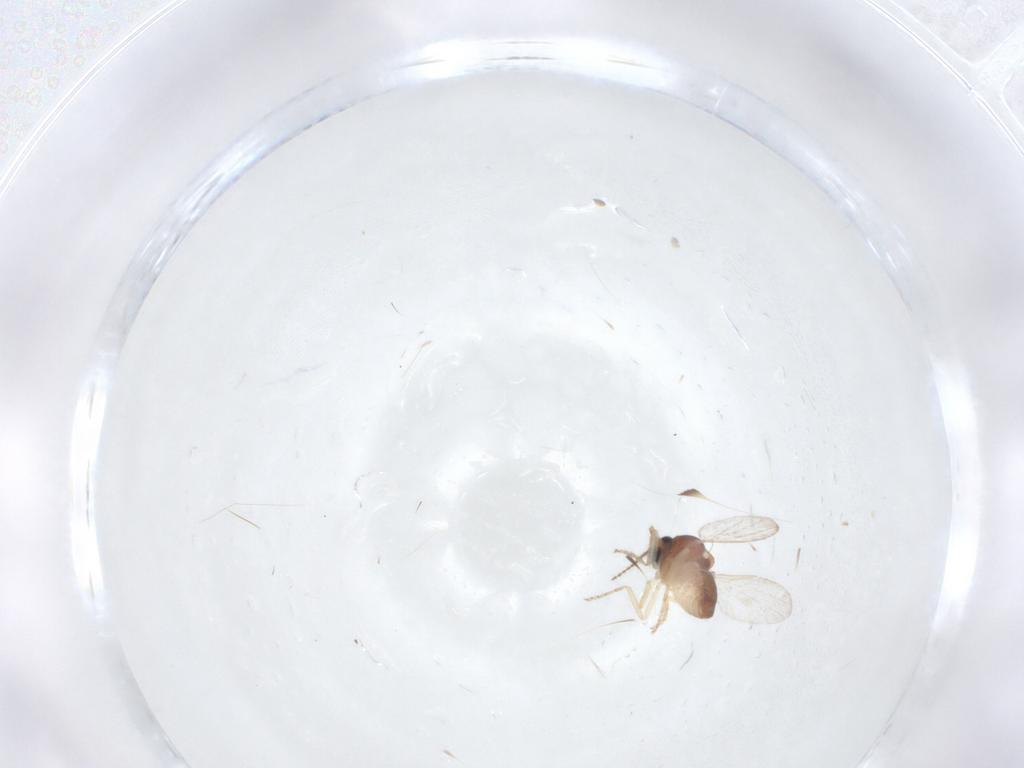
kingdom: Animalia
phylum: Arthropoda
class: Insecta
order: Diptera
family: Ceratopogonidae
